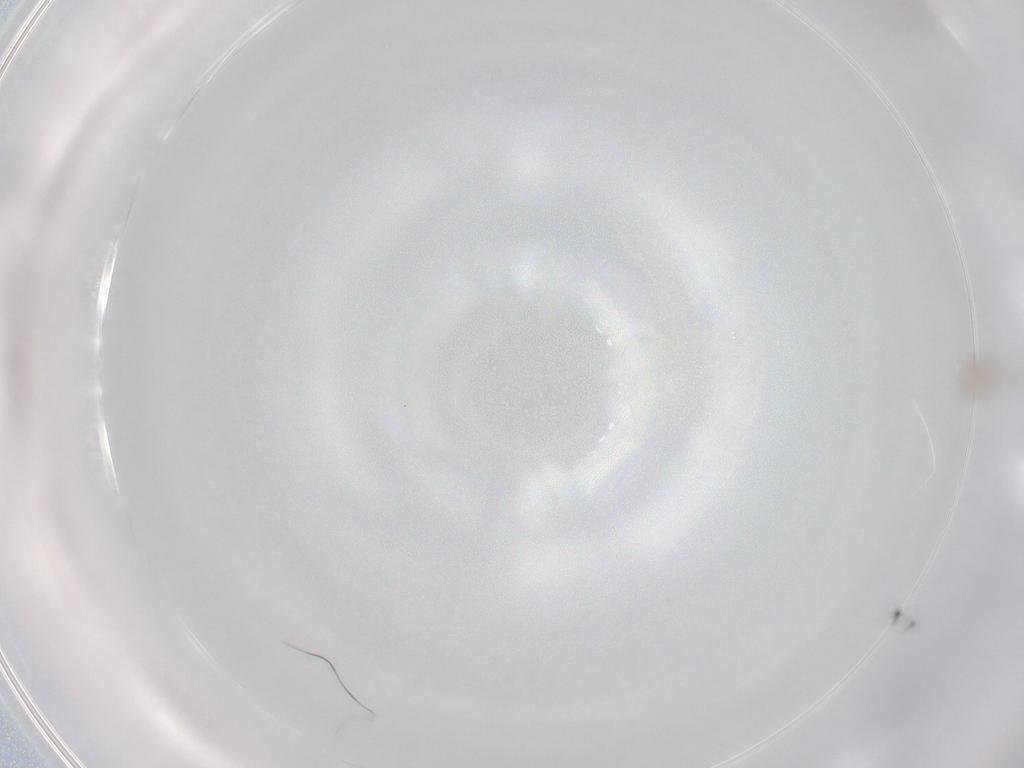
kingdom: Animalia
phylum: Arthropoda
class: Insecta
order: Psocodea
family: Peripsocidae
